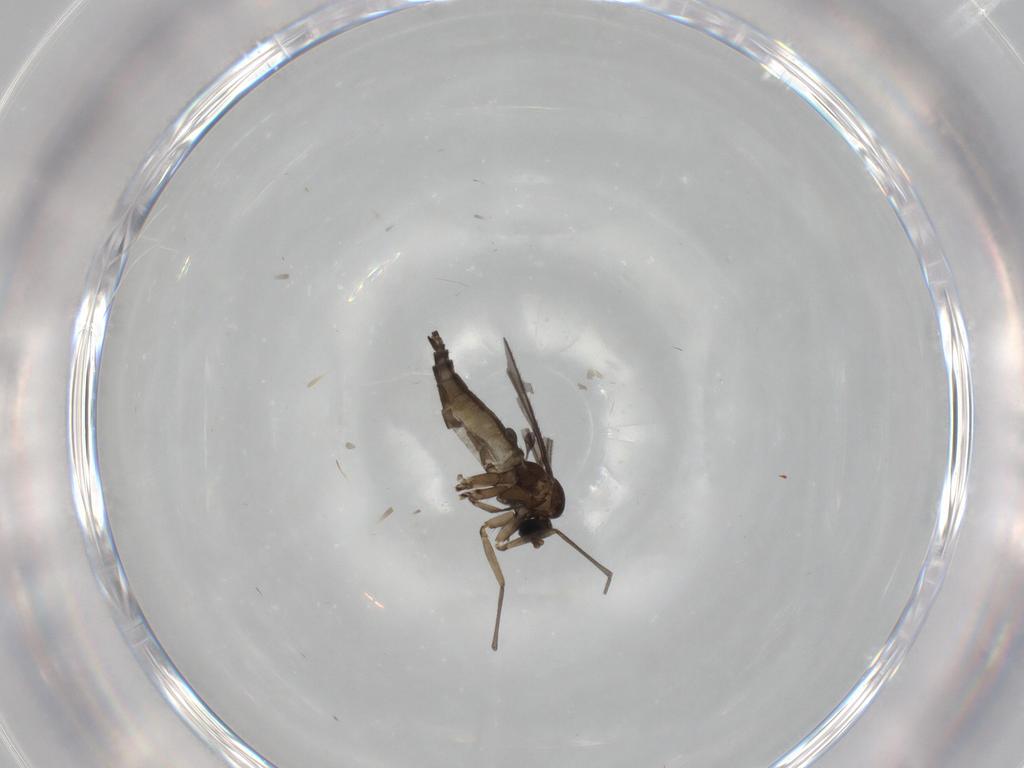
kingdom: Animalia
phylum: Arthropoda
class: Insecta
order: Diptera
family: Sciaridae
